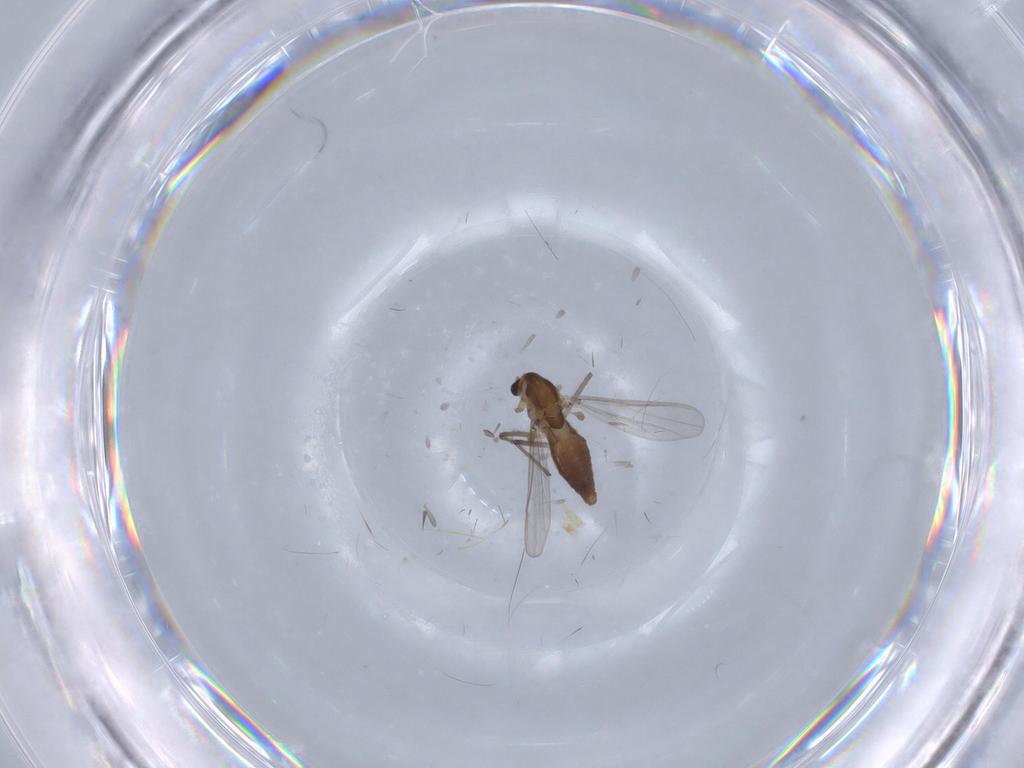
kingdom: Animalia
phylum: Arthropoda
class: Insecta
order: Diptera
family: Chironomidae
